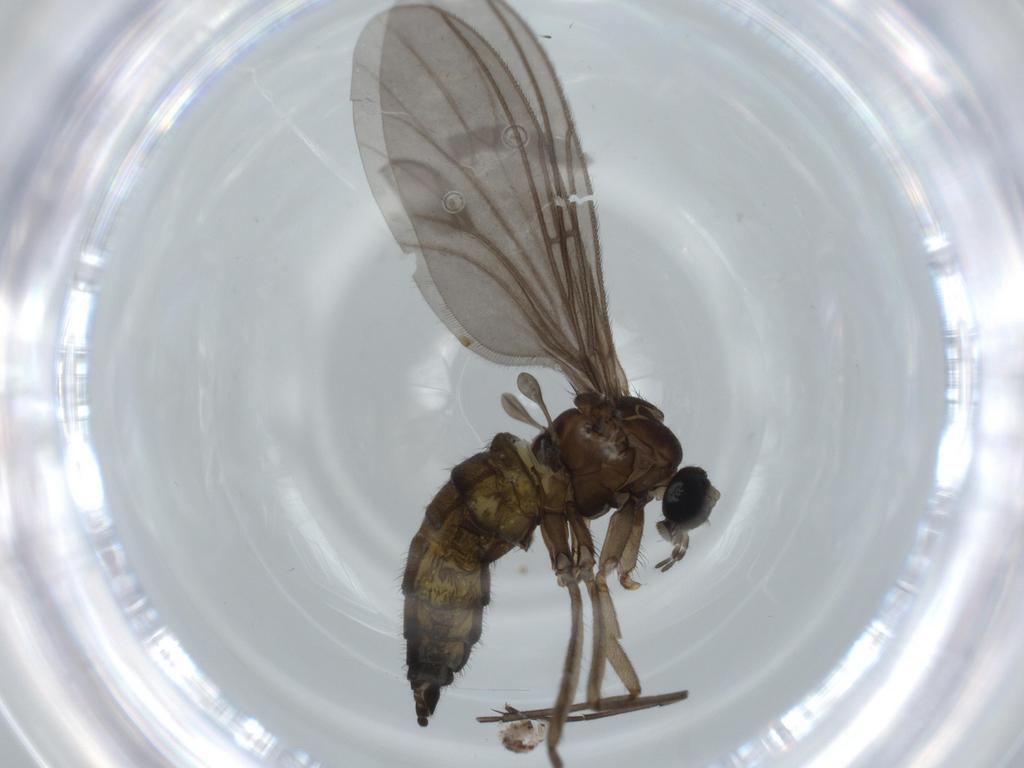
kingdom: Animalia
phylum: Arthropoda
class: Insecta
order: Diptera
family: Sciaridae
